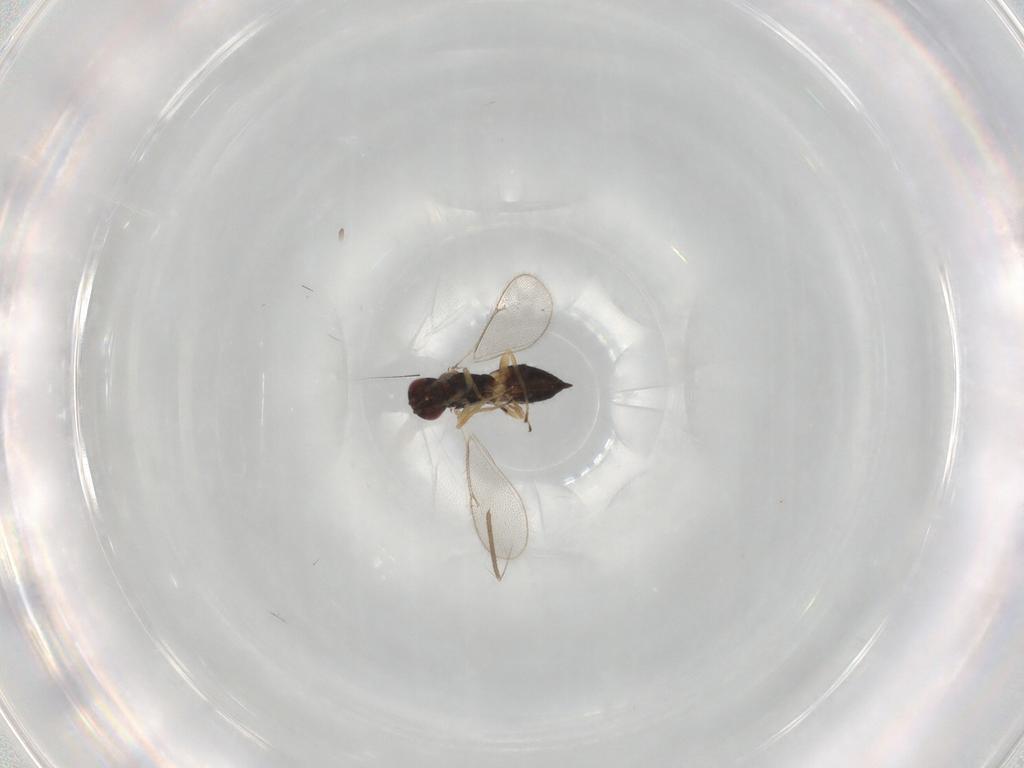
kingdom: Animalia
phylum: Arthropoda
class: Insecta
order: Hymenoptera
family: Eulophidae
